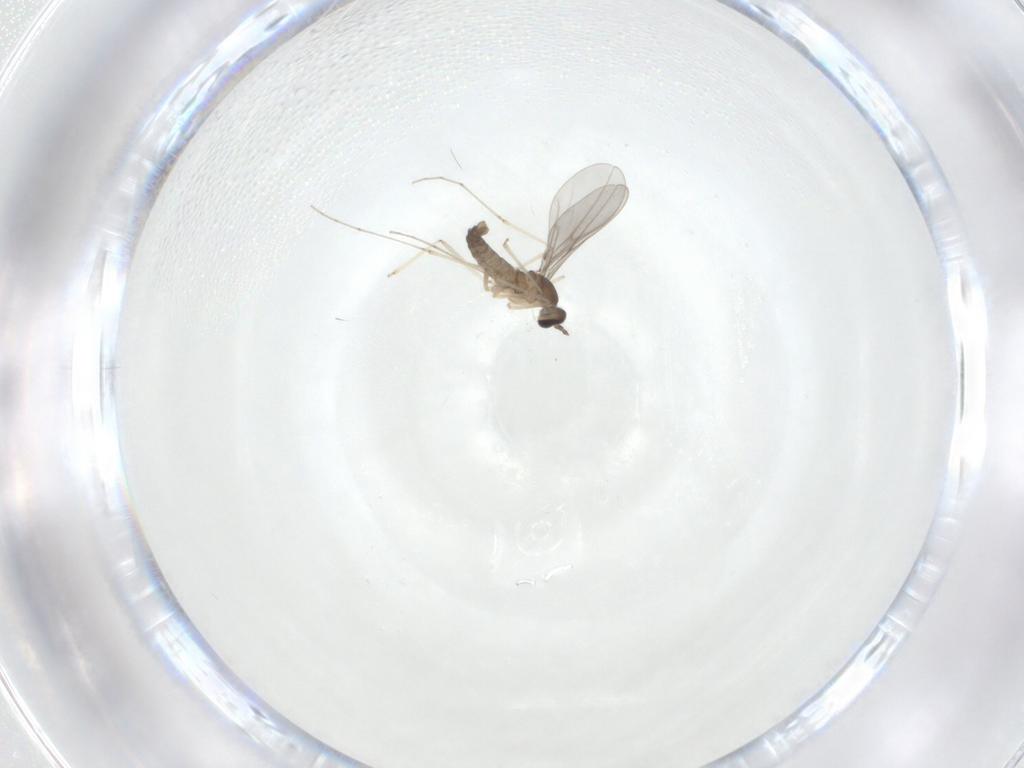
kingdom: Animalia
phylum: Arthropoda
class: Insecta
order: Diptera
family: Cecidomyiidae
